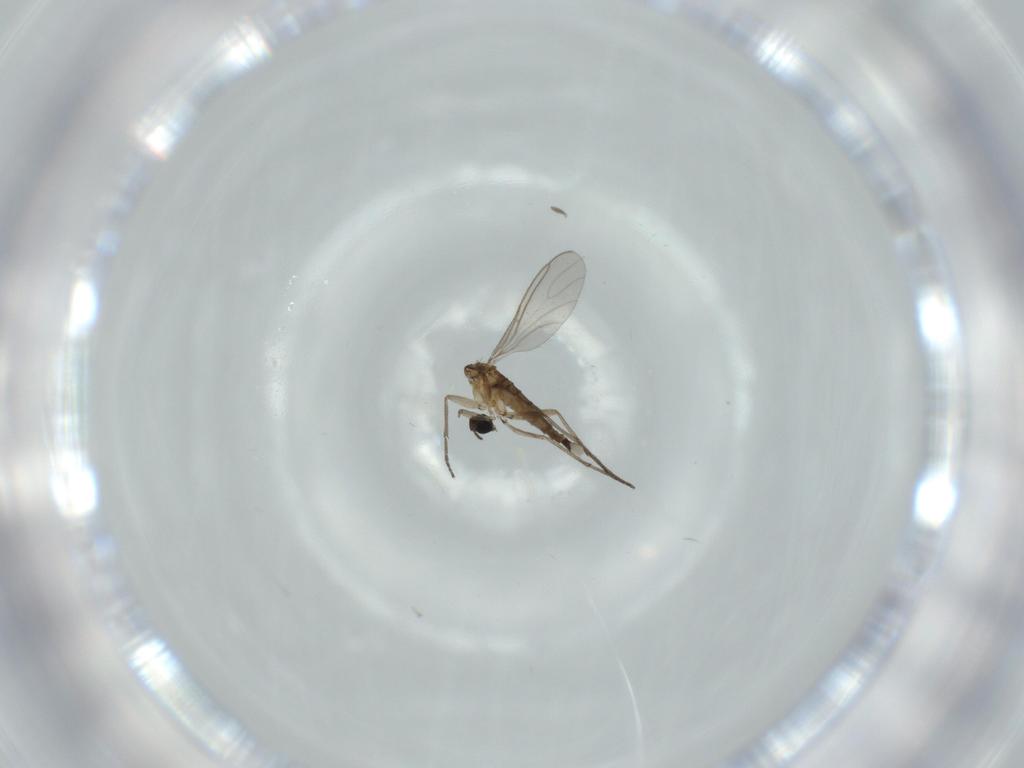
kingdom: Animalia
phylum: Arthropoda
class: Insecta
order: Diptera
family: Sciaridae
